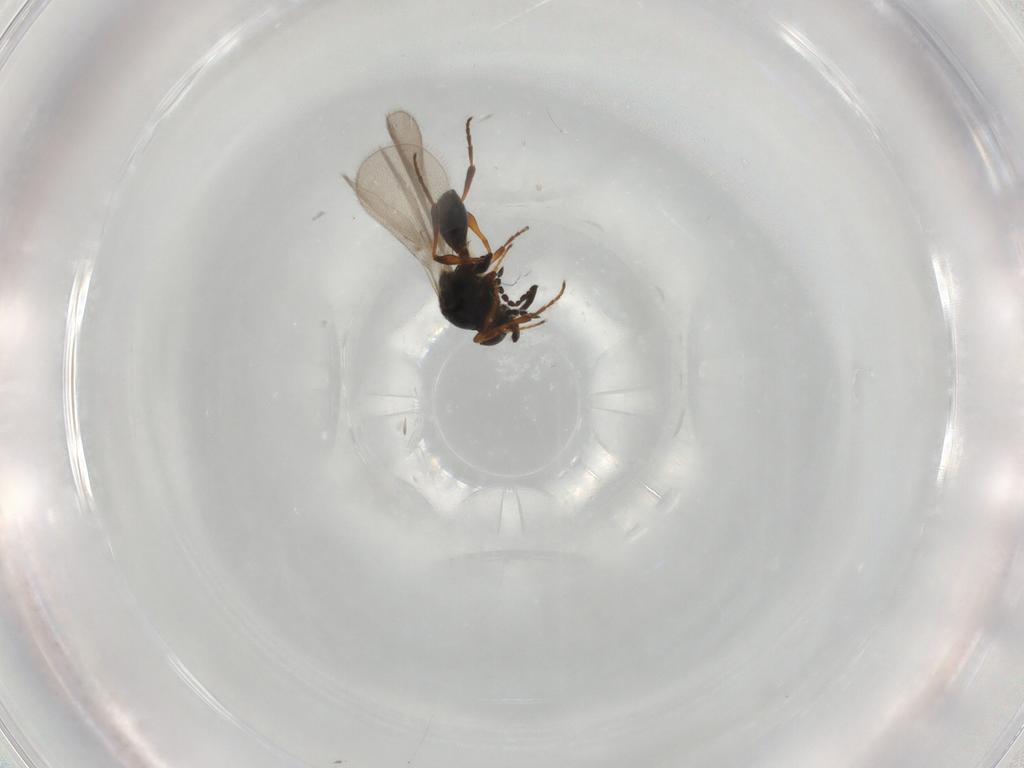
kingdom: Animalia
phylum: Arthropoda
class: Insecta
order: Hymenoptera
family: Platygastridae
